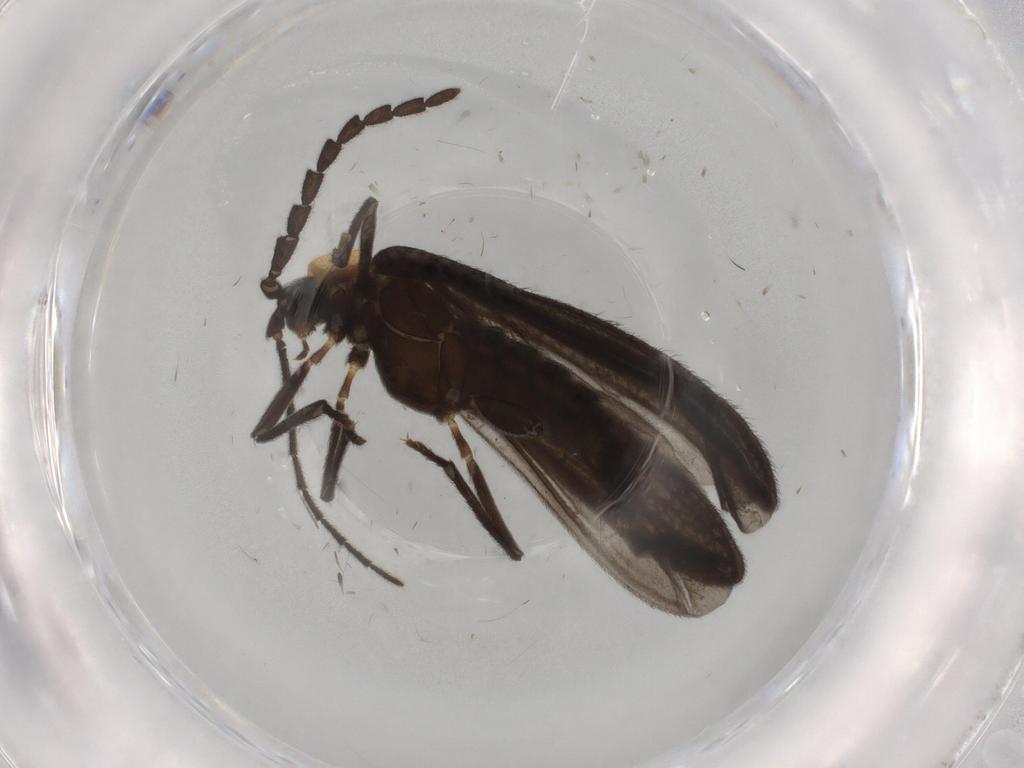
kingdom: Animalia
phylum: Arthropoda
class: Insecta
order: Coleoptera
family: Lycidae
